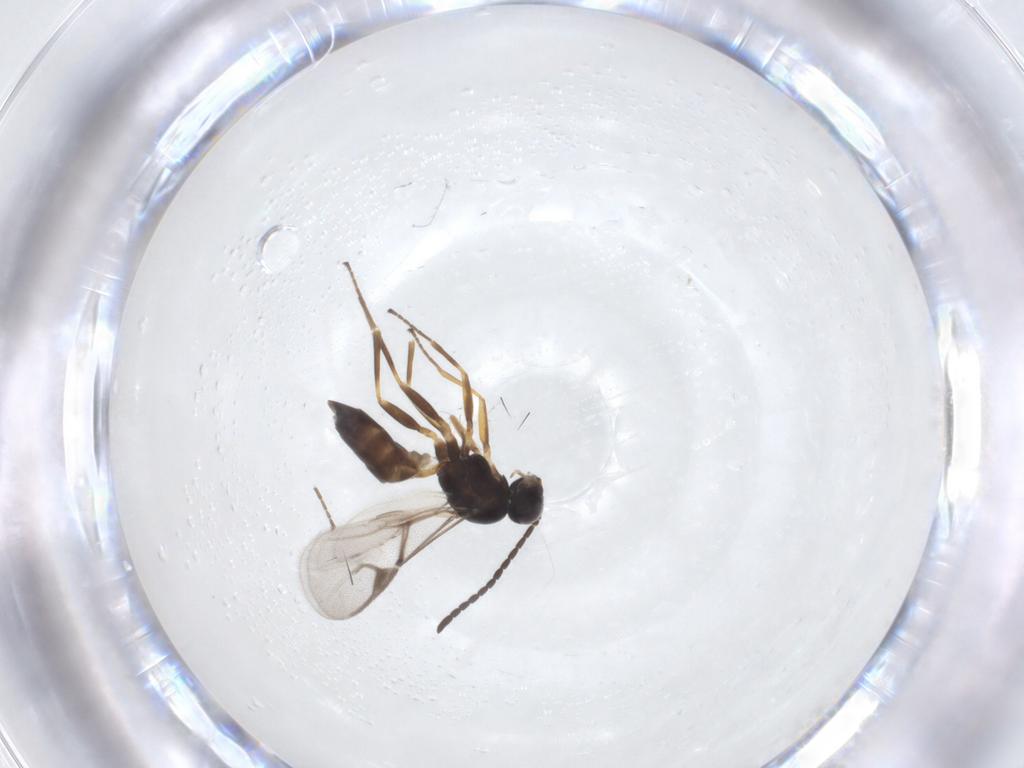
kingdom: Animalia
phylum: Arthropoda
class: Insecta
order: Hymenoptera
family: Braconidae
